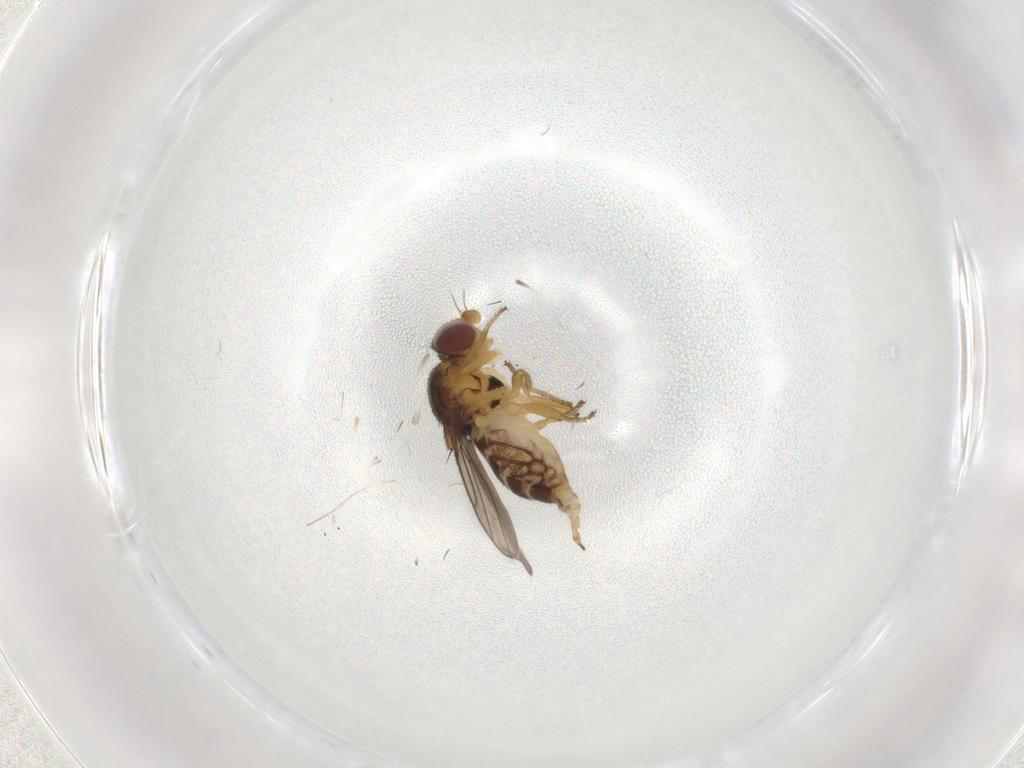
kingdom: Animalia
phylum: Arthropoda
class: Insecta
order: Diptera
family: Chloropidae
